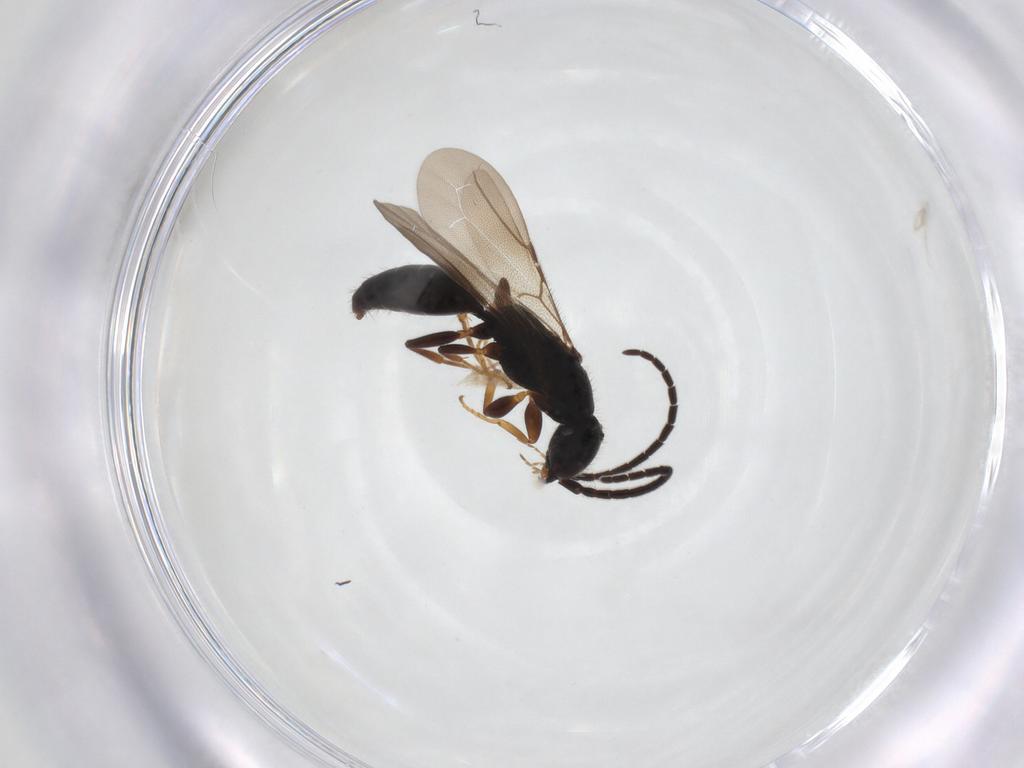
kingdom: Animalia
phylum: Arthropoda
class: Insecta
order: Hymenoptera
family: Bethylidae
